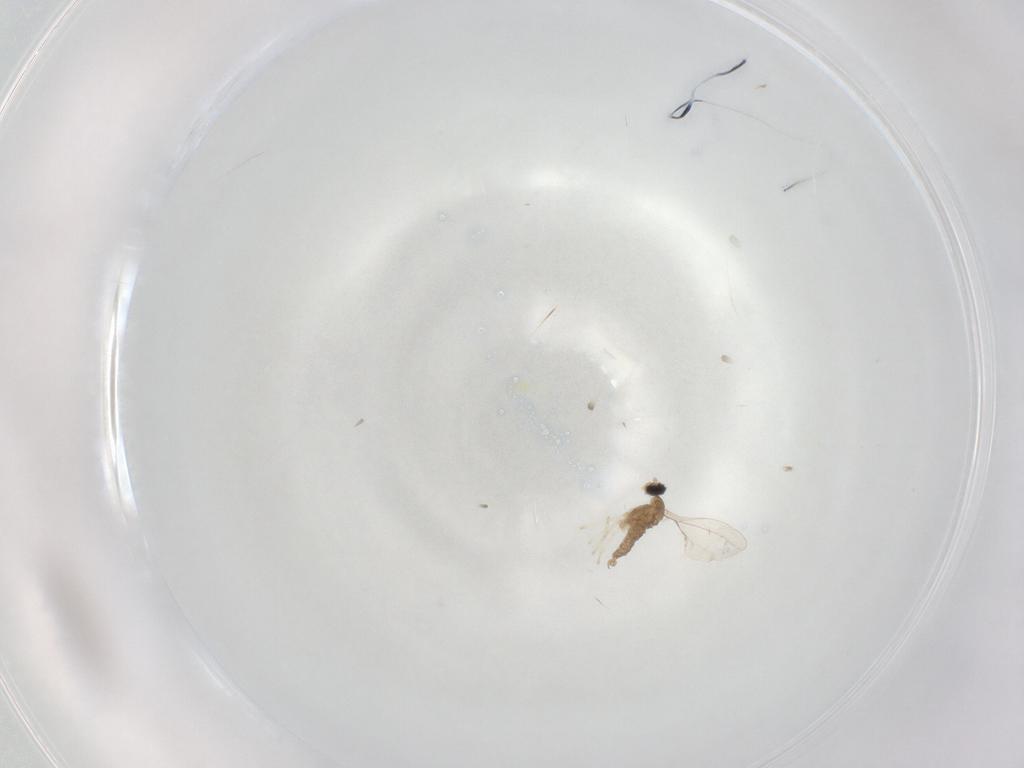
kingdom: Animalia
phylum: Arthropoda
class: Insecta
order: Diptera
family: Cecidomyiidae
